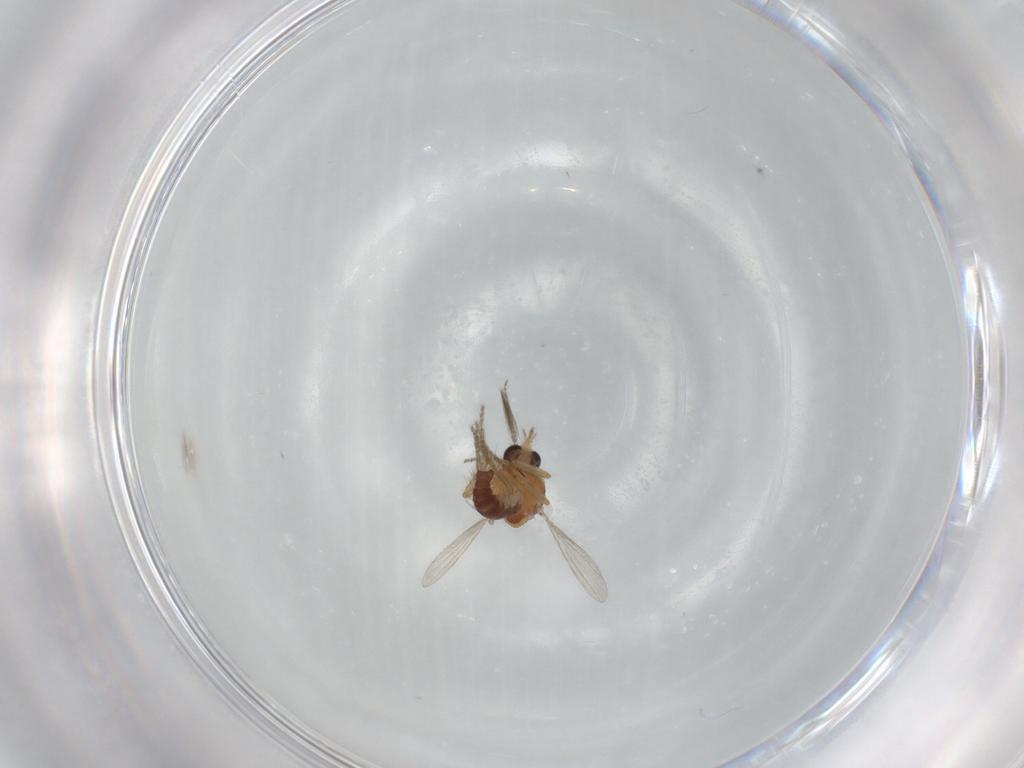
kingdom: Animalia
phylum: Arthropoda
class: Insecta
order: Diptera
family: Ceratopogonidae
